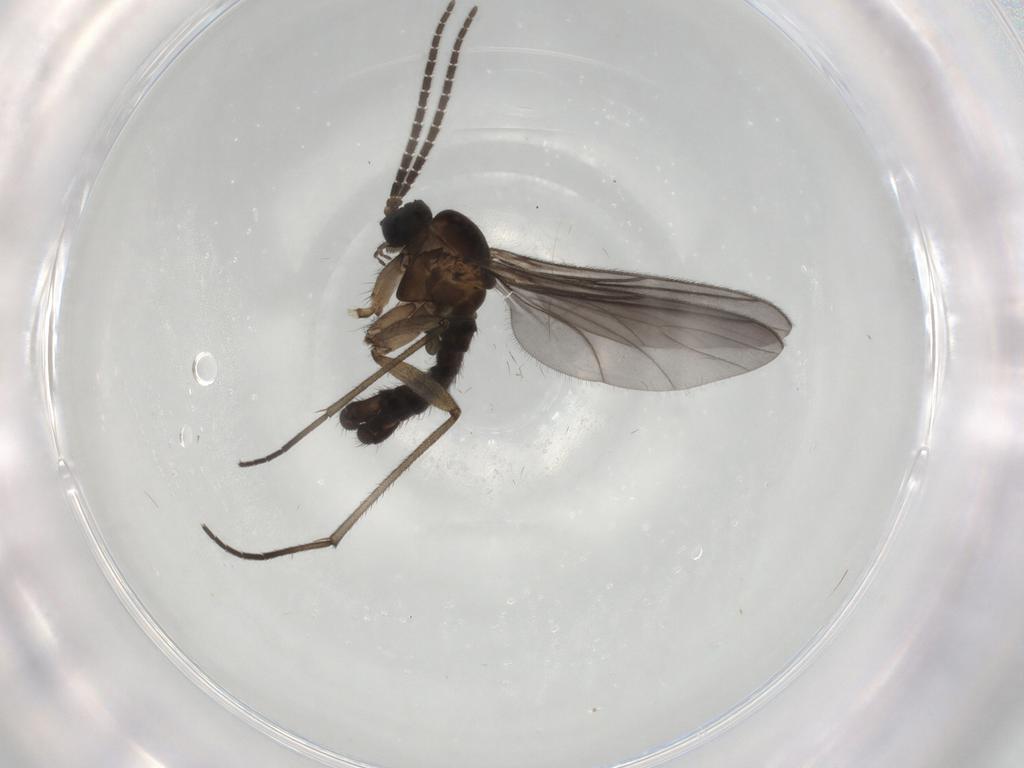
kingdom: Animalia
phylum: Arthropoda
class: Insecta
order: Diptera
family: Sciaridae
